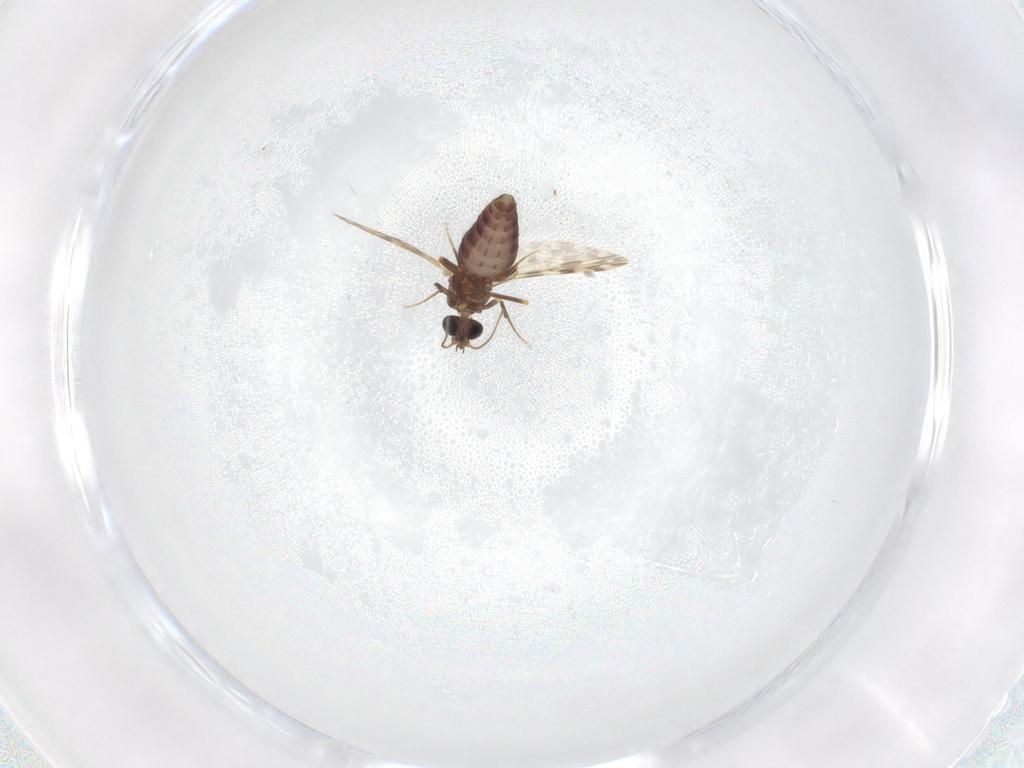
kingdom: Animalia
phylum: Arthropoda
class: Insecta
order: Diptera
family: Ceratopogonidae
